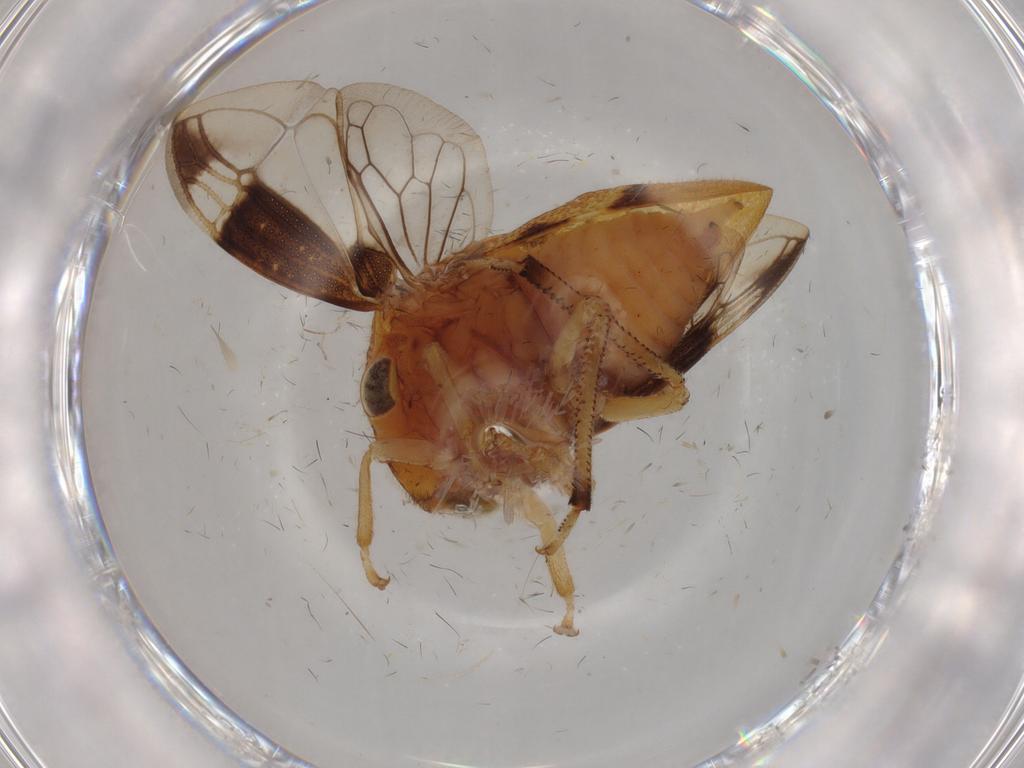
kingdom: Animalia
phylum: Arthropoda
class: Insecta
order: Hemiptera
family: Membracidae
